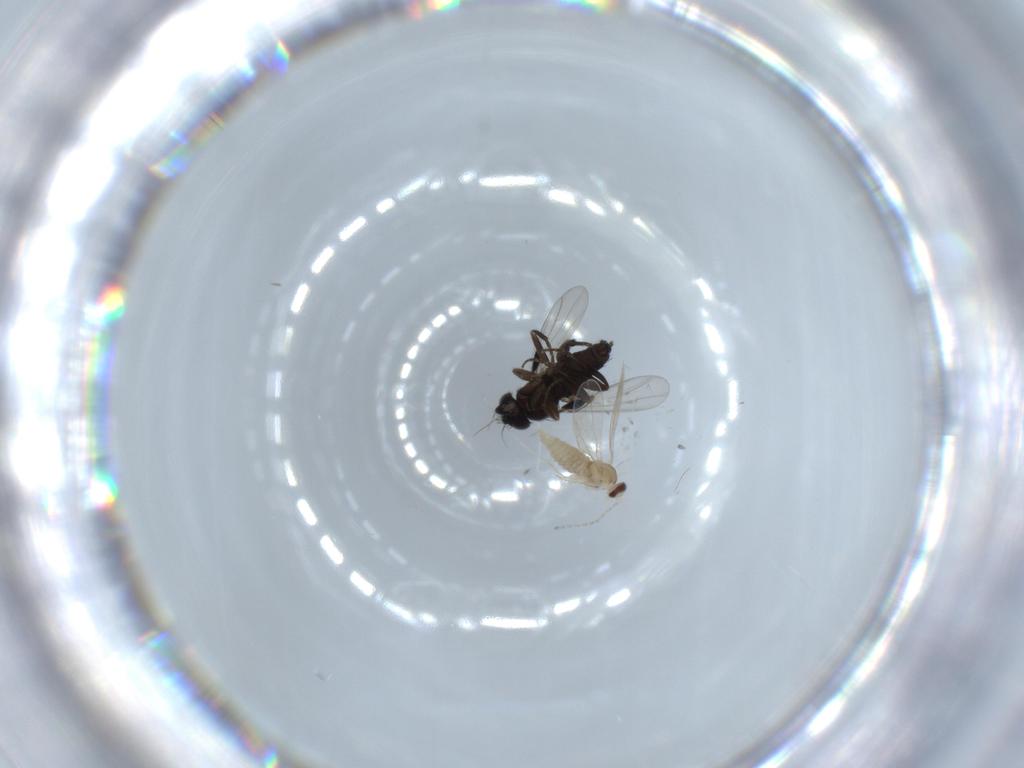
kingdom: Animalia
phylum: Arthropoda
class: Insecta
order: Diptera
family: Cecidomyiidae
